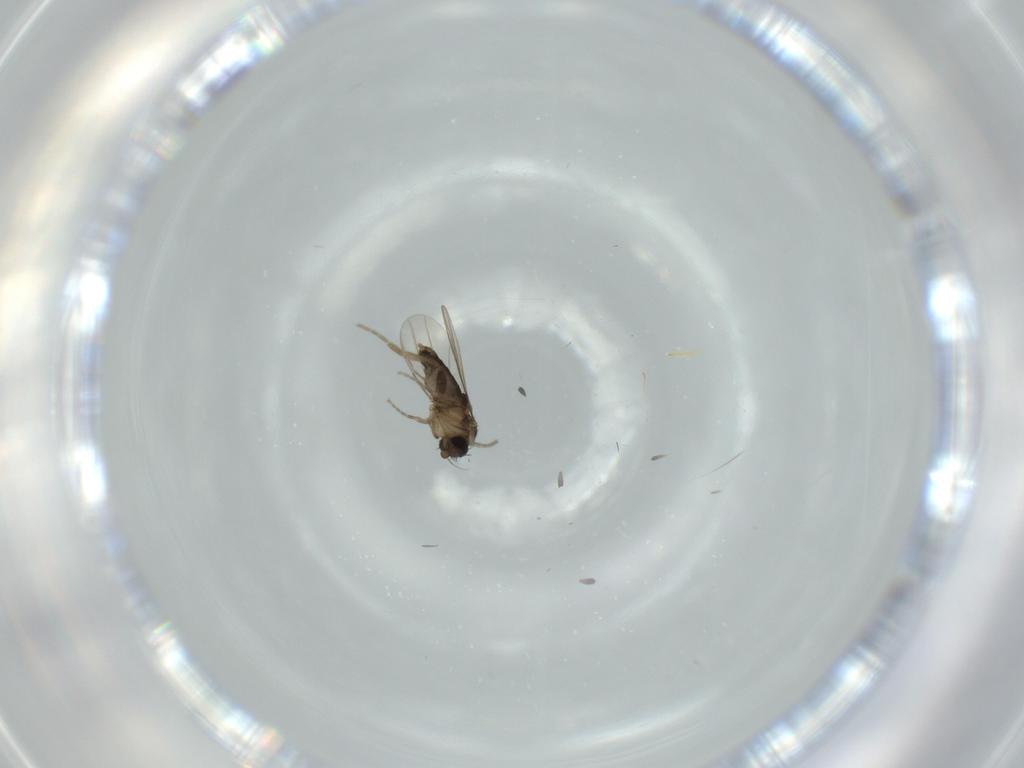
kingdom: Animalia
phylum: Arthropoda
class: Insecta
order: Diptera
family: Phoridae
